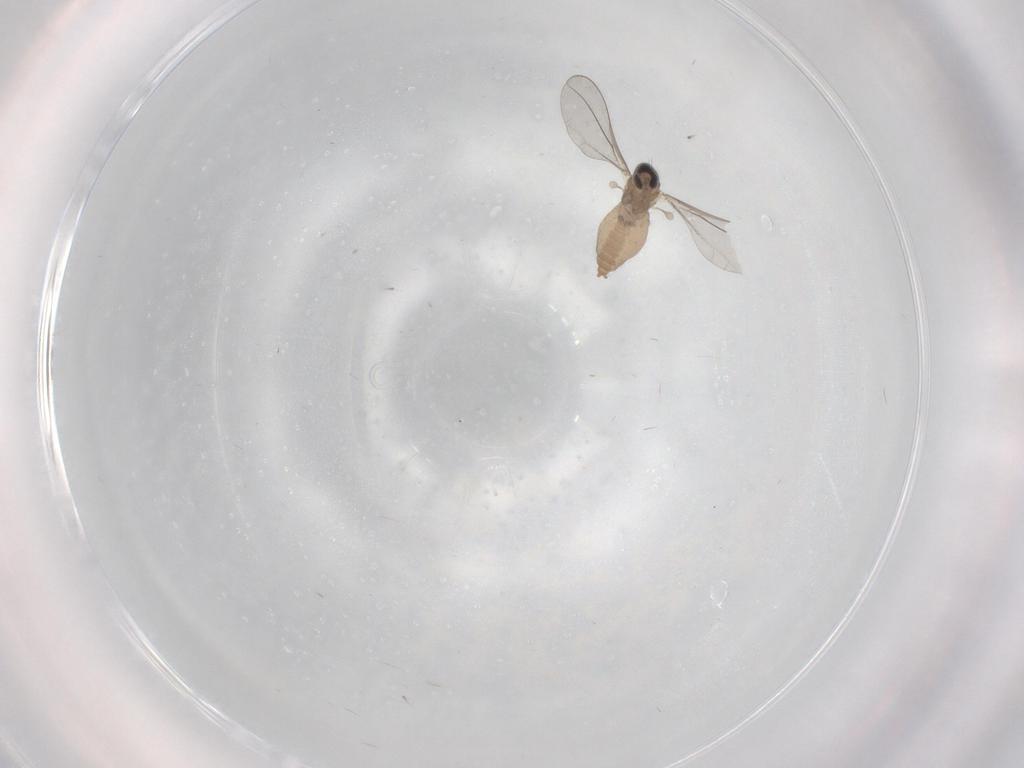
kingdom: Animalia
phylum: Arthropoda
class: Insecta
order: Diptera
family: Cecidomyiidae
